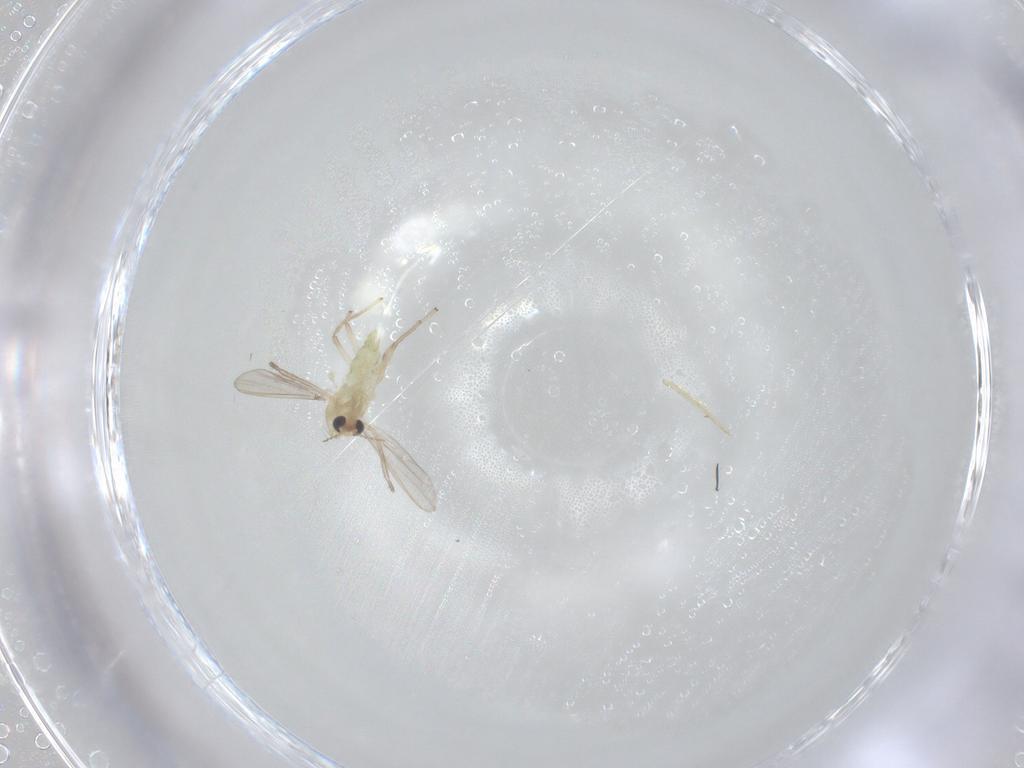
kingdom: Animalia
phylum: Arthropoda
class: Insecta
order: Diptera
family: Chironomidae
